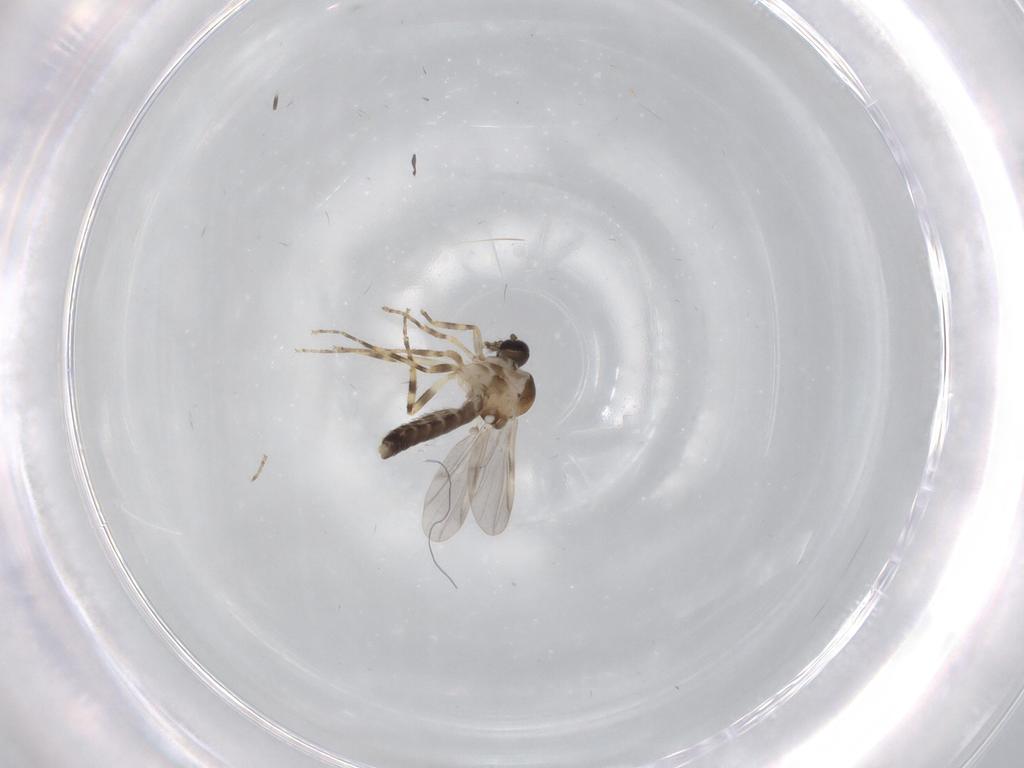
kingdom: Animalia
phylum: Arthropoda
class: Insecta
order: Diptera
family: Ceratopogonidae
